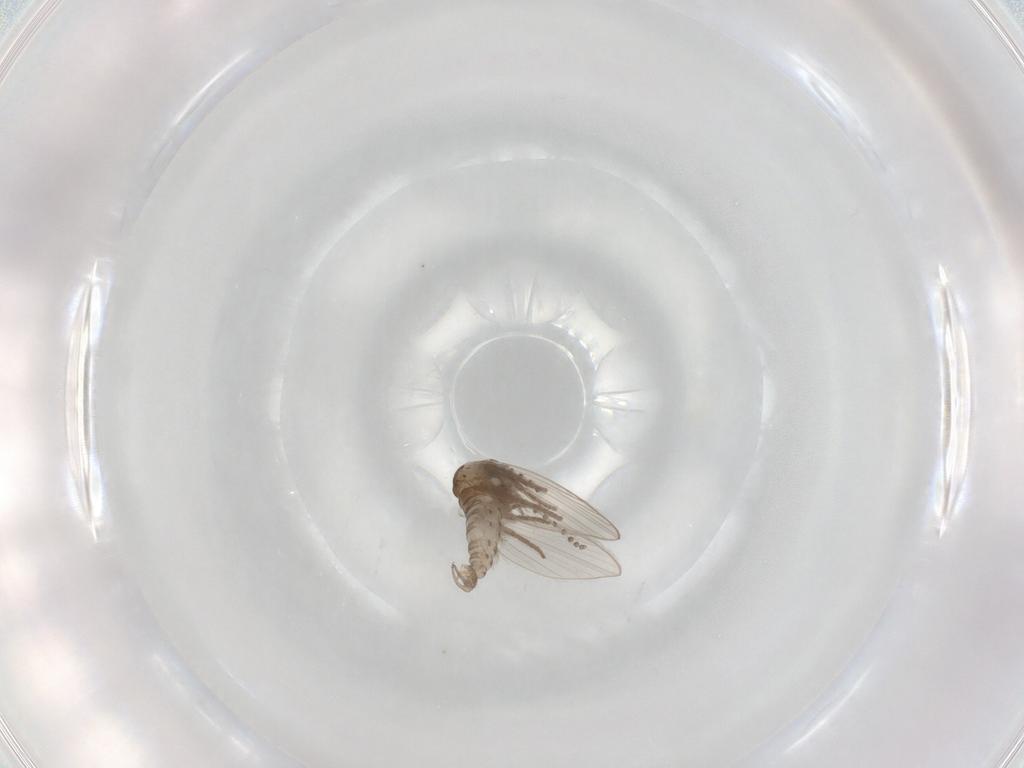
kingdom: Animalia
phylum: Arthropoda
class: Insecta
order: Diptera
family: Psychodidae
